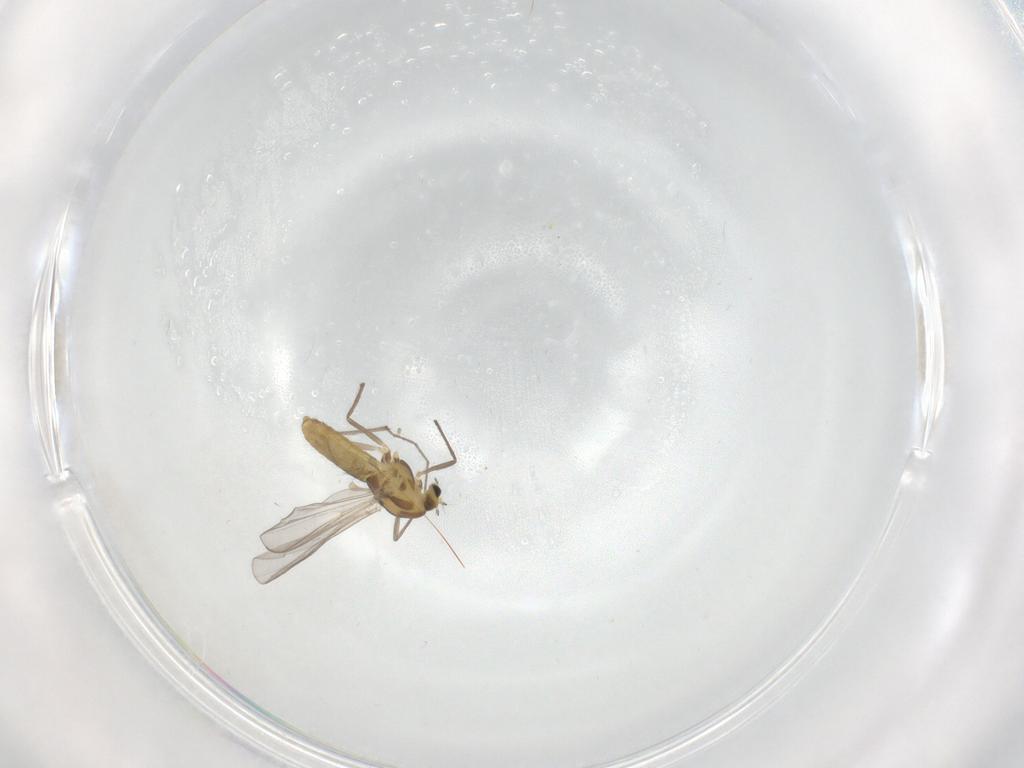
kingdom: Animalia
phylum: Arthropoda
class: Insecta
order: Diptera
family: Chironomidae
